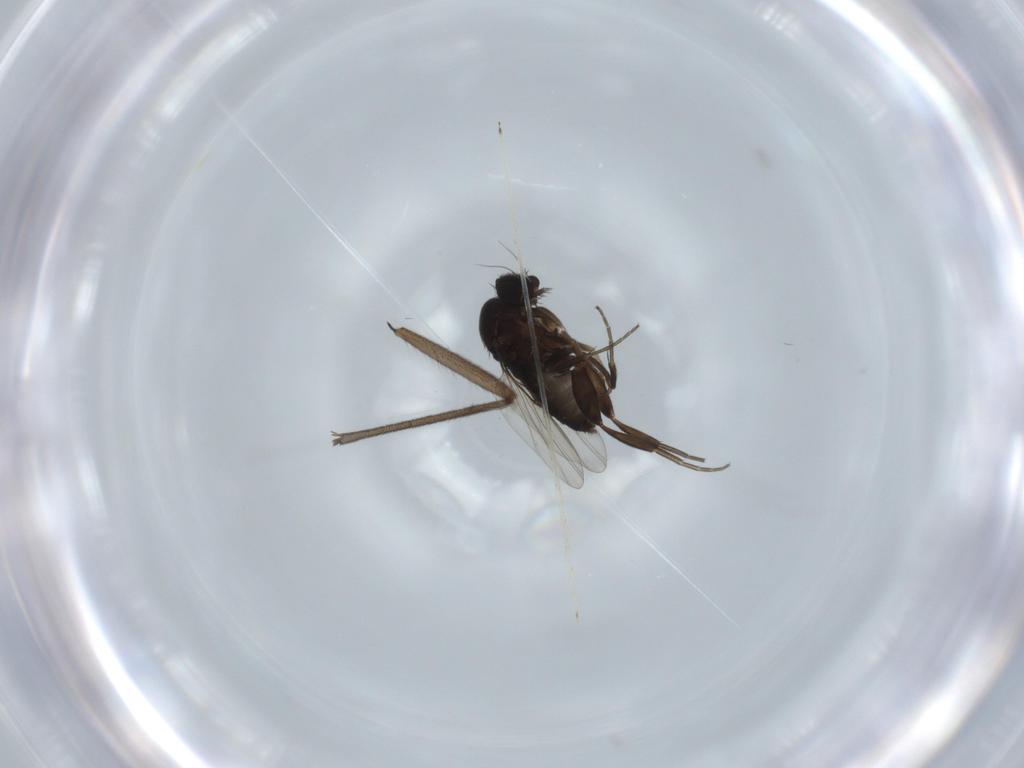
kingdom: Animalia
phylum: Arthropoda
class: Insecta
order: Diptera
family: Phoridae
